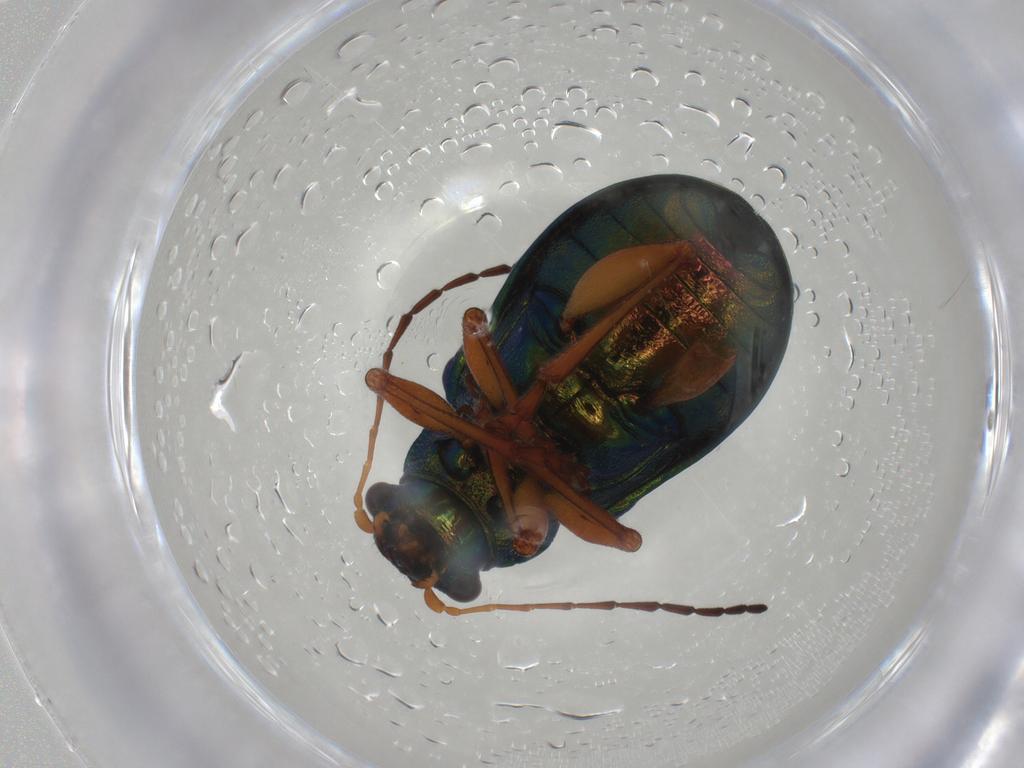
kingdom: Animalia
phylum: Arthropoda
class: Insecta
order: Coleoptera
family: Chrysomelidae
